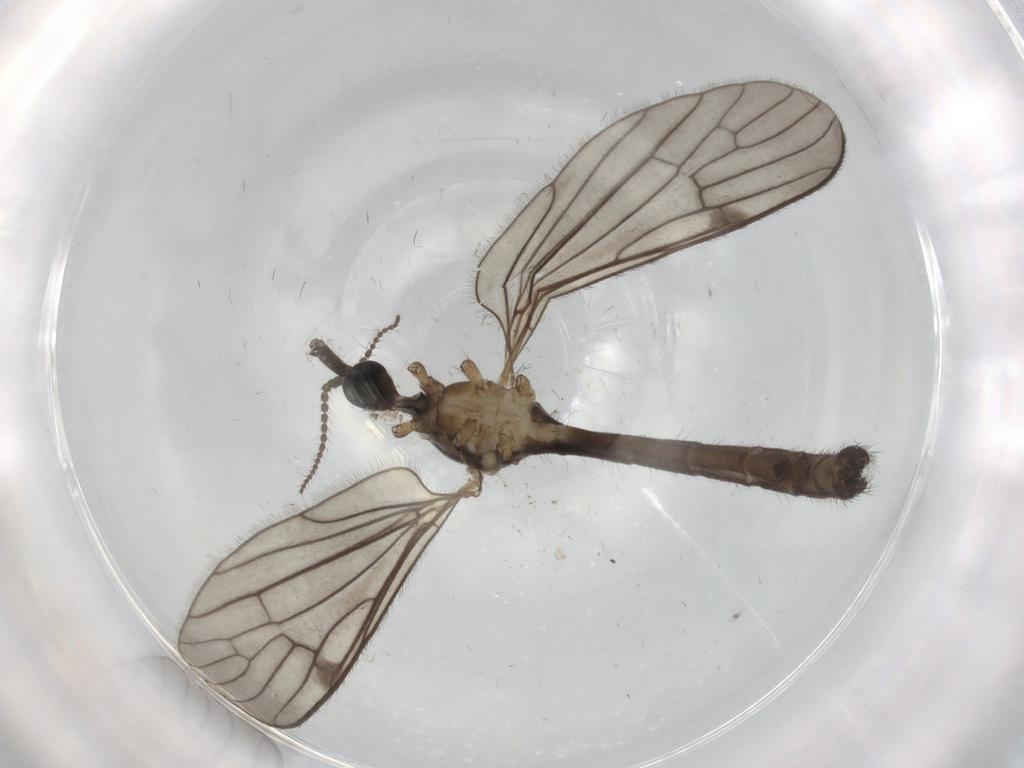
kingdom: Animalia
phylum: Arthropoda
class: Insecta
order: Diptera
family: Limoniidae
